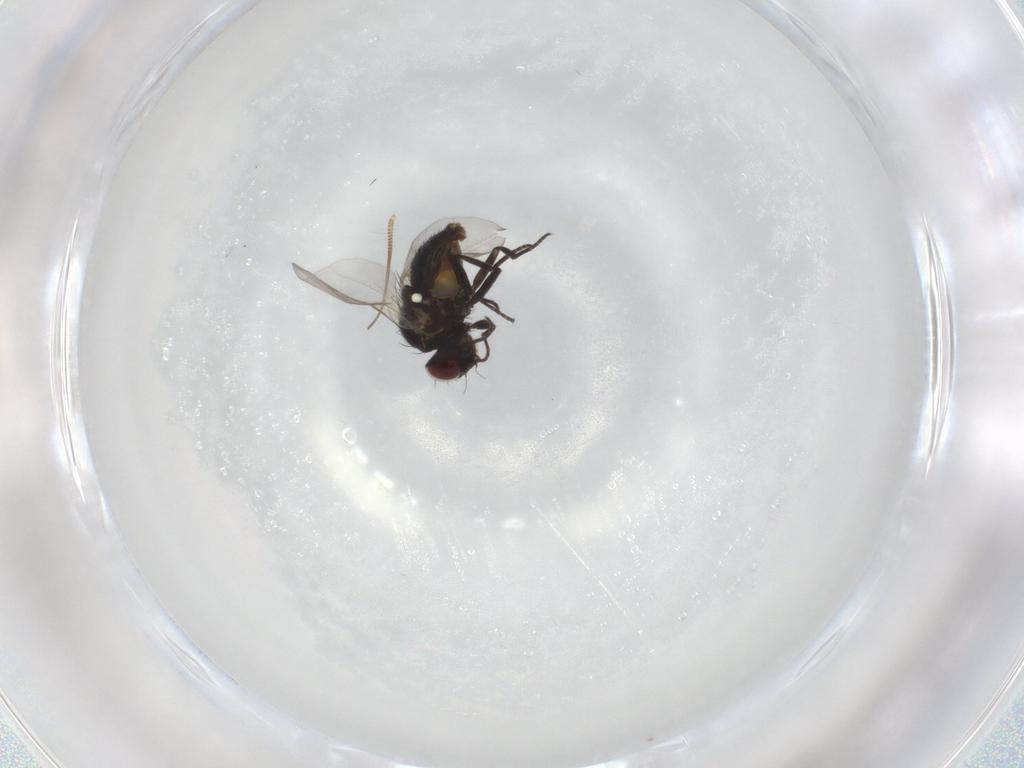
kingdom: Animalia
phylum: Arthropoda
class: Insecta
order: Diptera
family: Chironomidae
